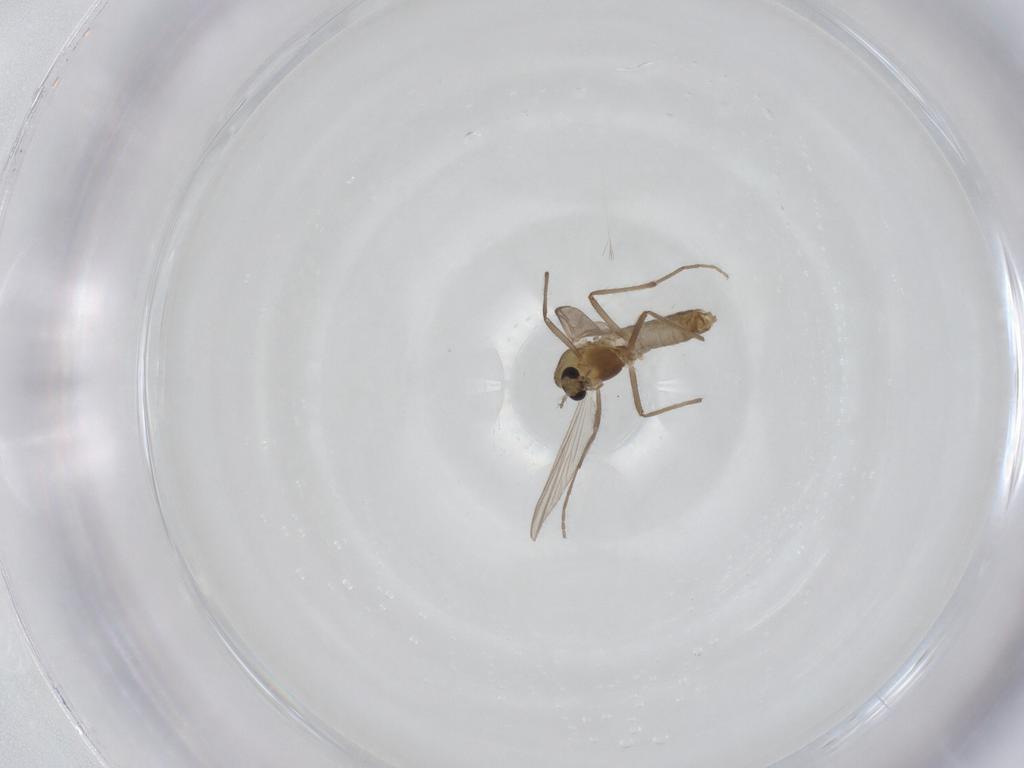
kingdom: Animalia
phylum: Arthropoda
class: Insecta
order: Diptera
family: Chironomidae
